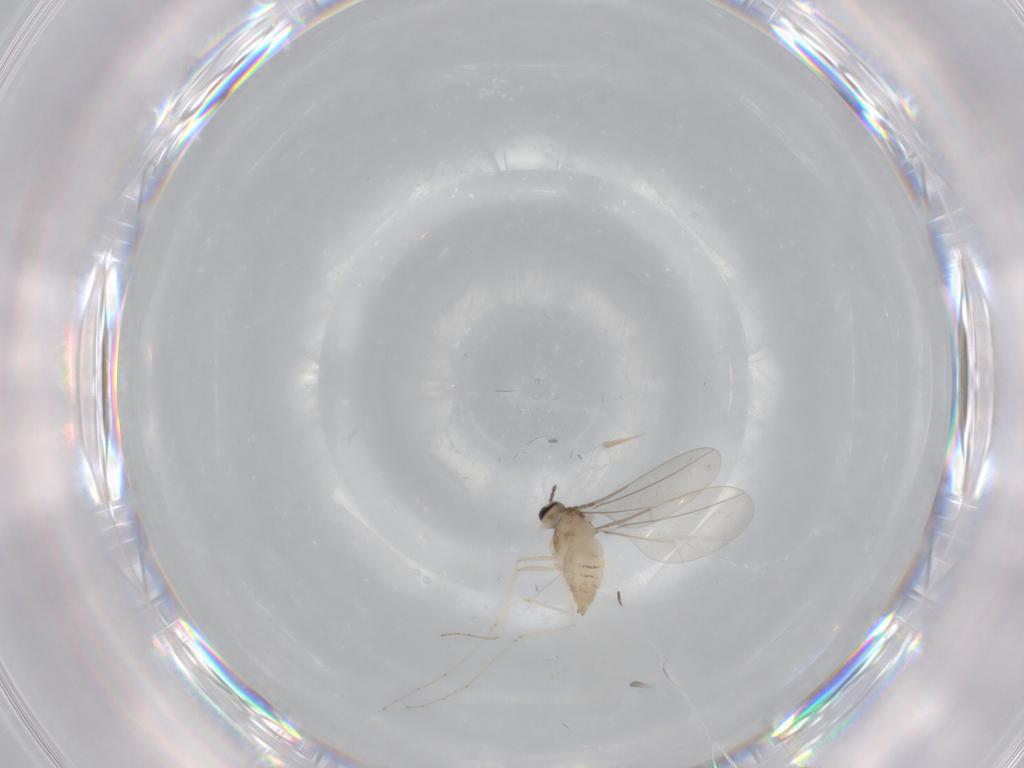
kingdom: Animalia
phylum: Arthropoda
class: Insecta
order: Diptera
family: Cecidomyiidae
